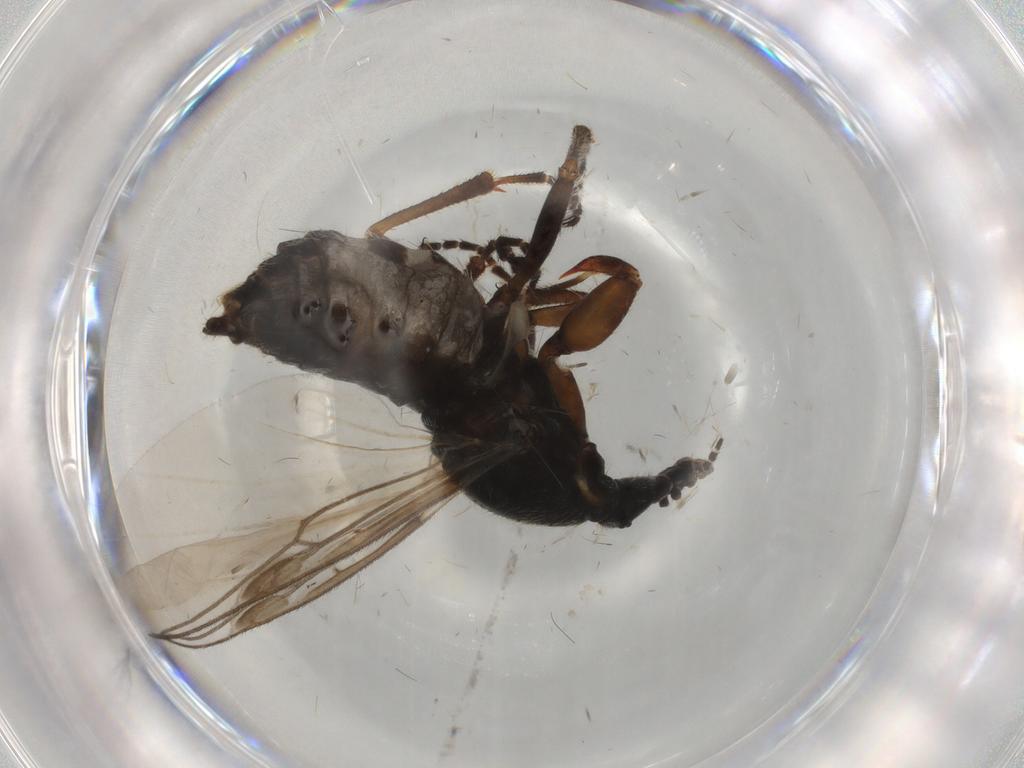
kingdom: Animalia
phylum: Arthropoda
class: Insecta
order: Diptera
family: Bibionidae
